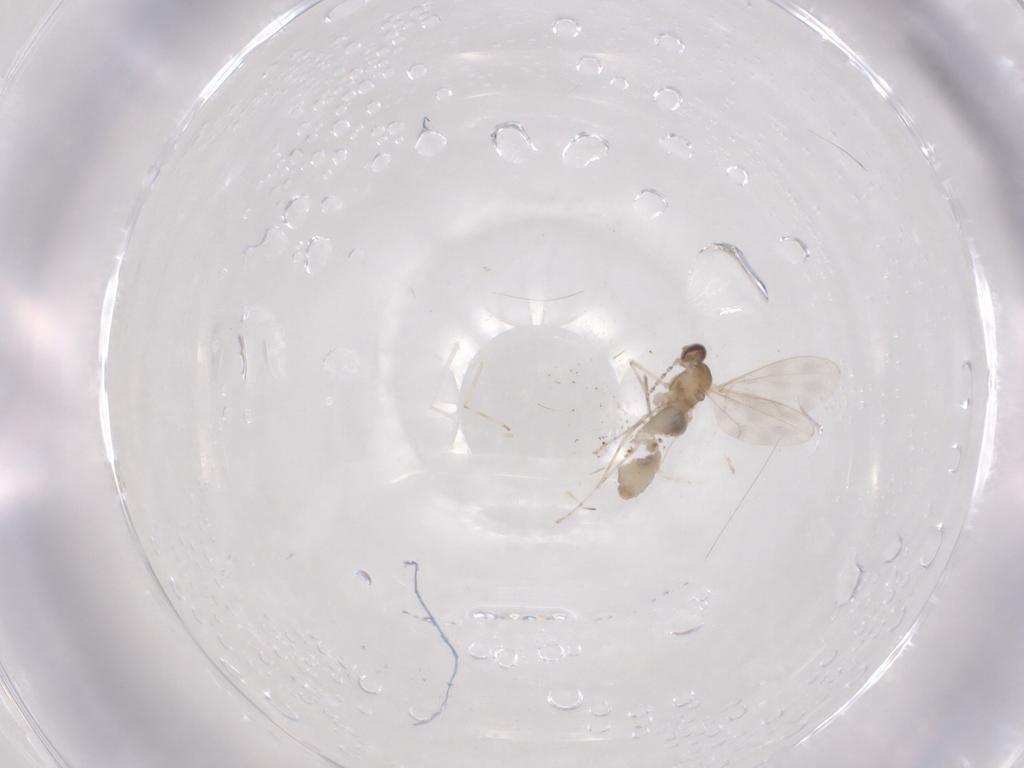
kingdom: Animalia
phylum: Arthropoda
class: Insecta
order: Diptera
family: Cecidomyiidae
